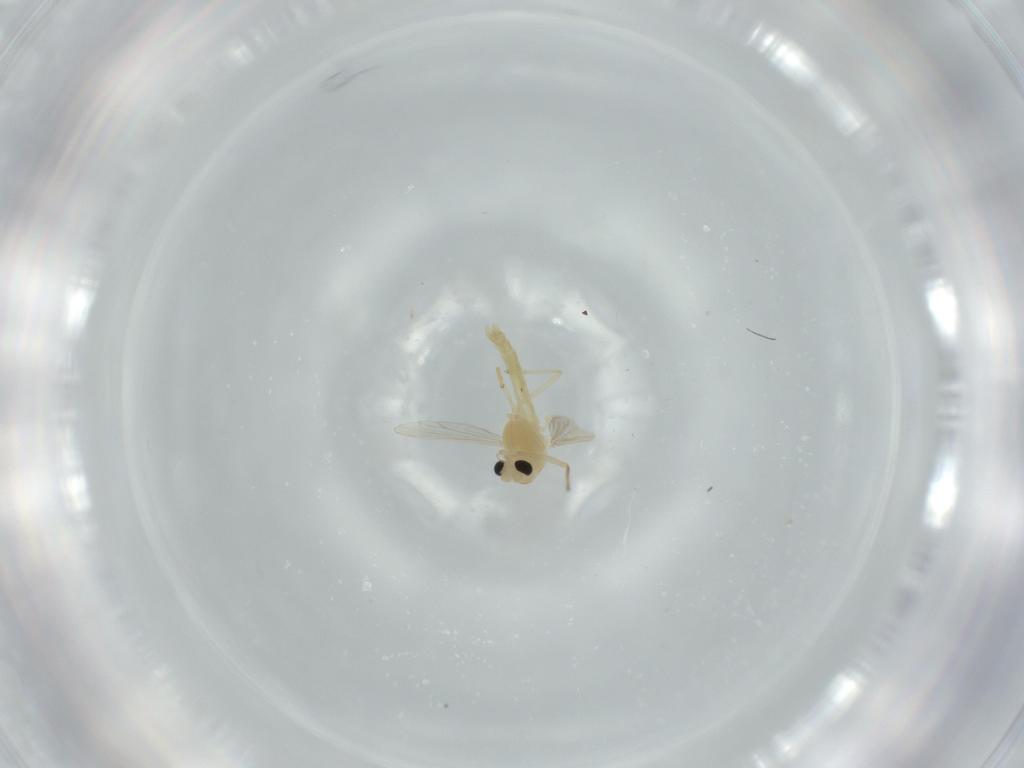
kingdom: Animalia
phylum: Arthropoda
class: Insecta
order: Diptera
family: Chironomidae
